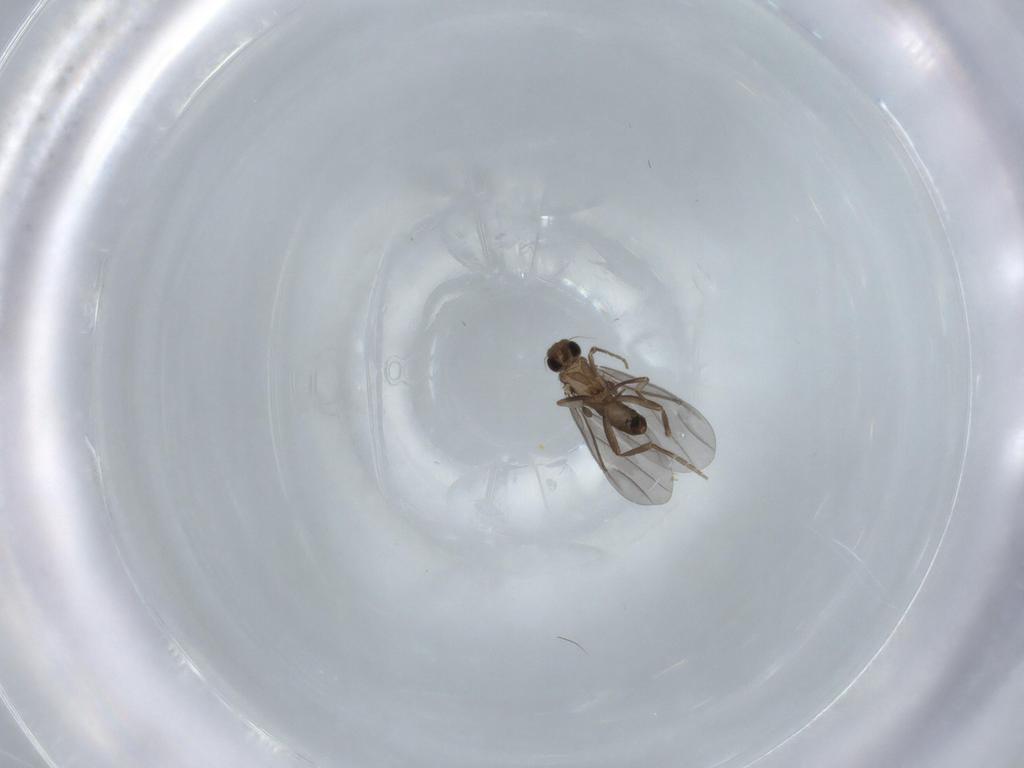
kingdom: Animalia
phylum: Arthropoda
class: Insecta
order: Diptera
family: Phoridae
